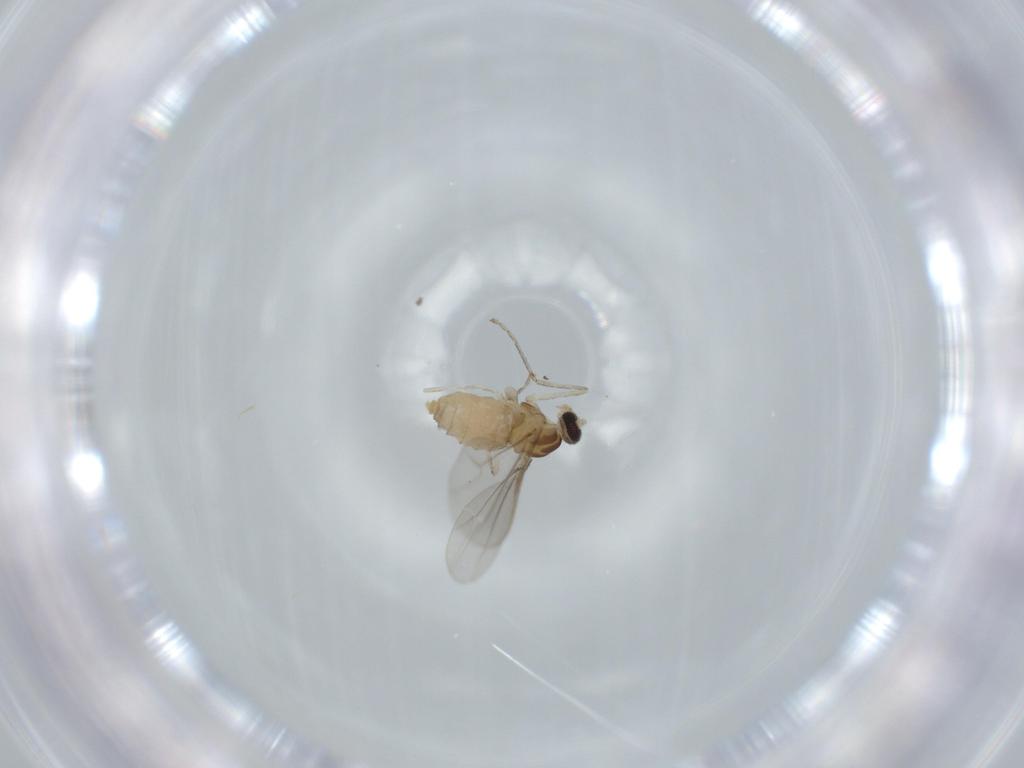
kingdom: Animalia
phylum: Arthropoda
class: Insecta
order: Diptera
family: Cecidomyiidae
